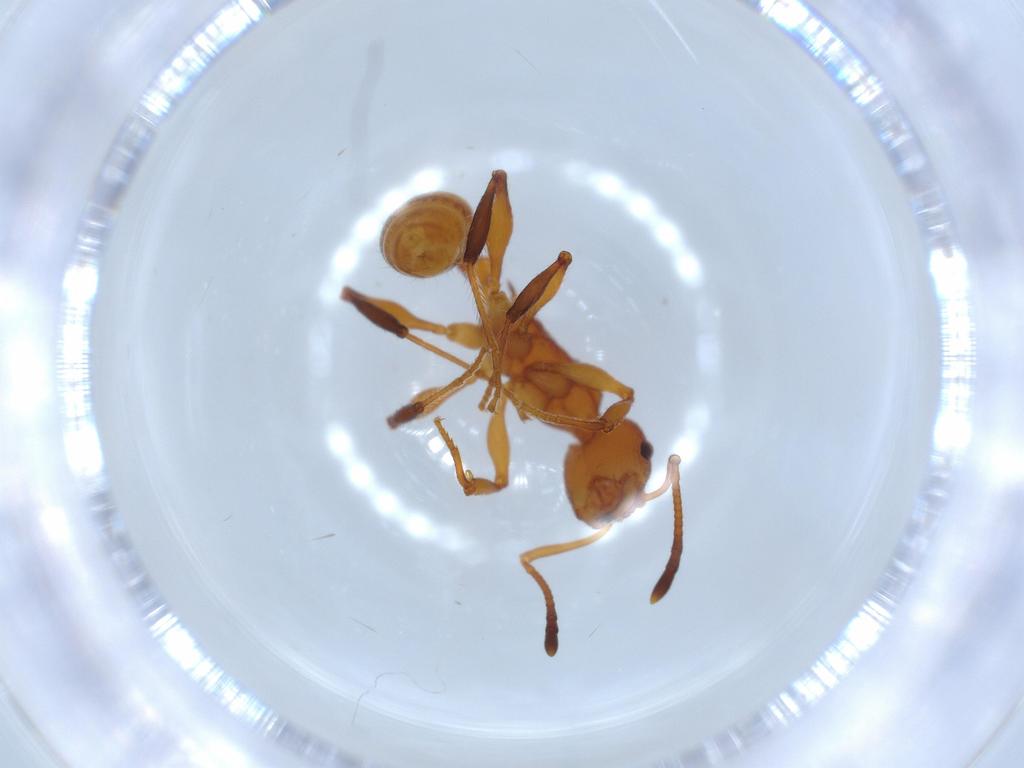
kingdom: Animalia
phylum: Arthropoda
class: Insecta
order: Hymenoptera
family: Formicidae
